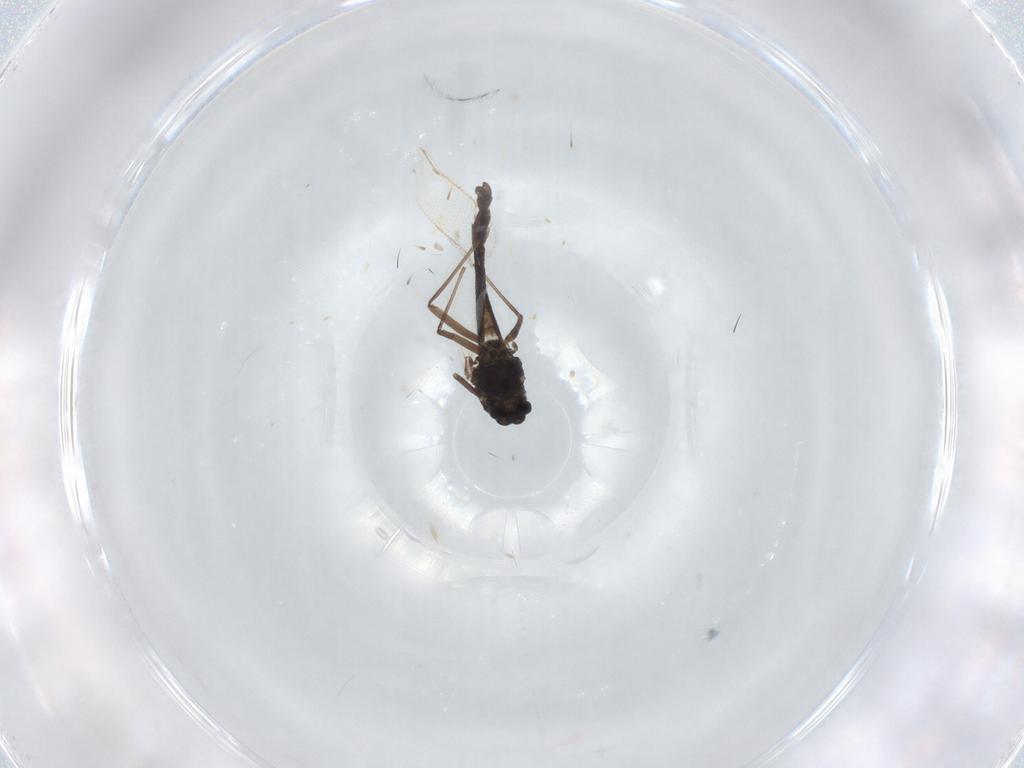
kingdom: Animalia
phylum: Arthropoda
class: Insecta
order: Diptera
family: Chironomidae
